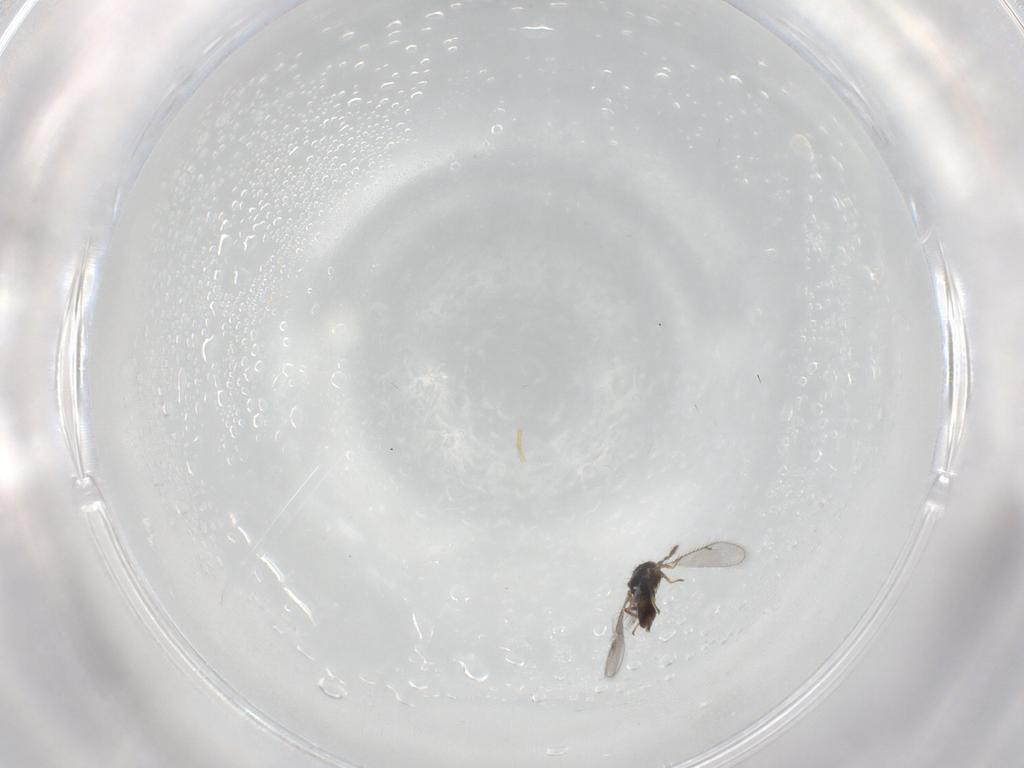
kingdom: Animalia
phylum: Arthropoda
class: Insecta
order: Hymenoptera
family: Eulophidae
